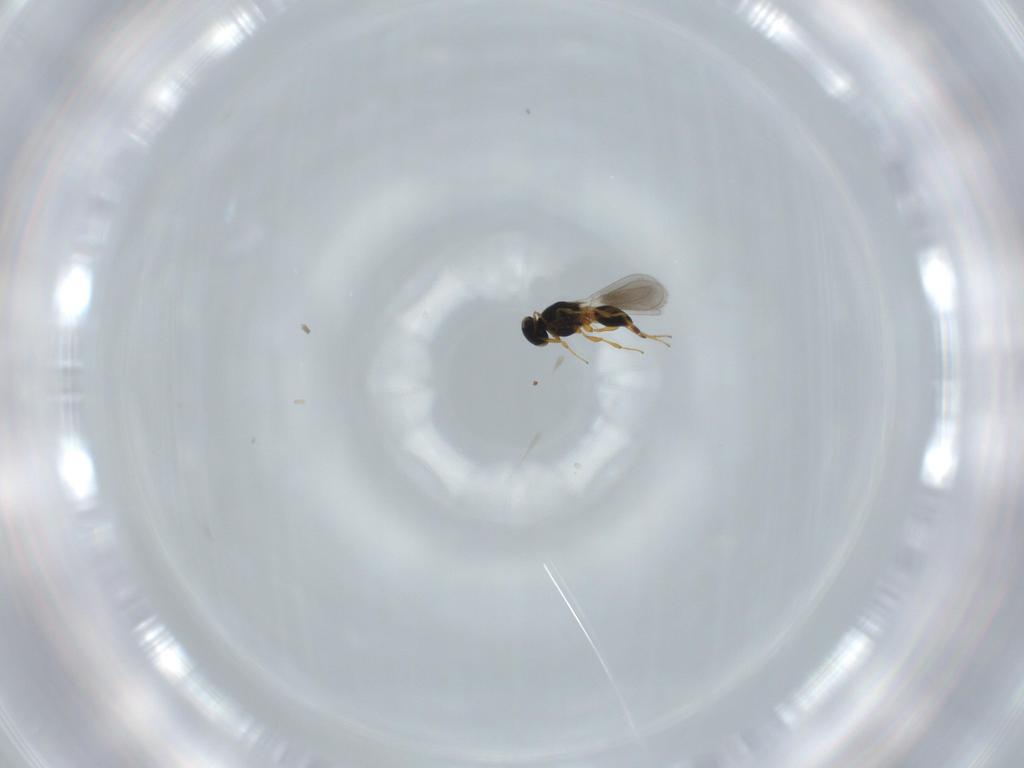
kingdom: Animalia
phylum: Arthropoda
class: Insecta
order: Hymenoptera
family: Platygastridae
